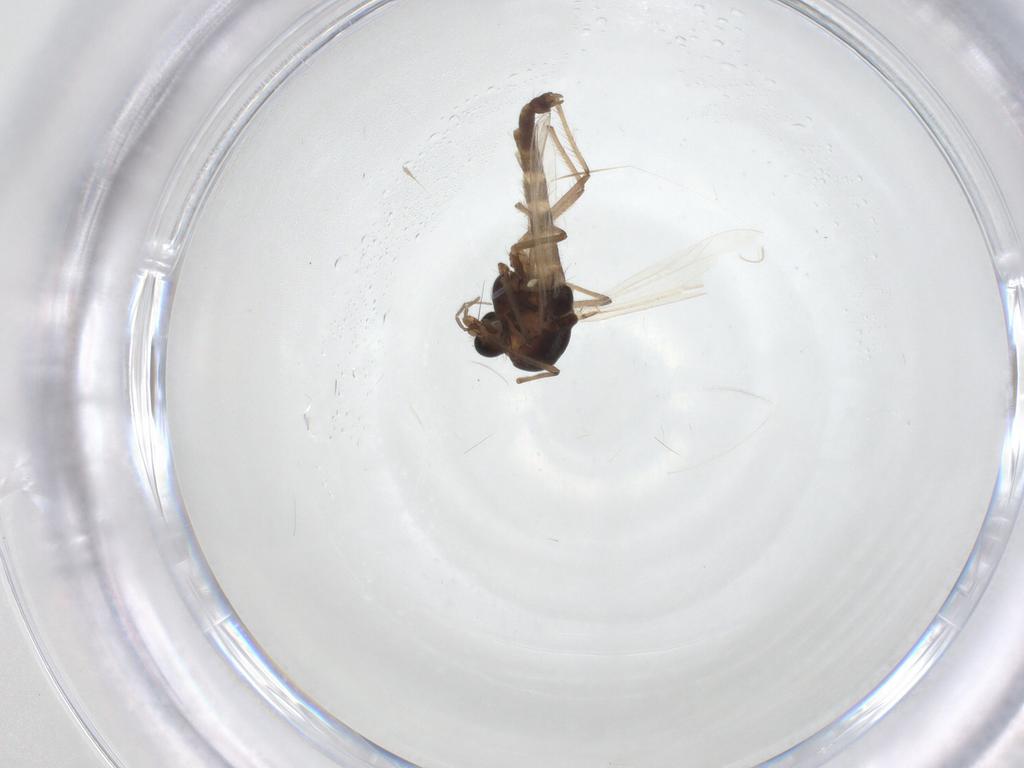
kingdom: Animalia
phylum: Arthropoda
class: Insecta
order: Diptera
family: Chironomidae
